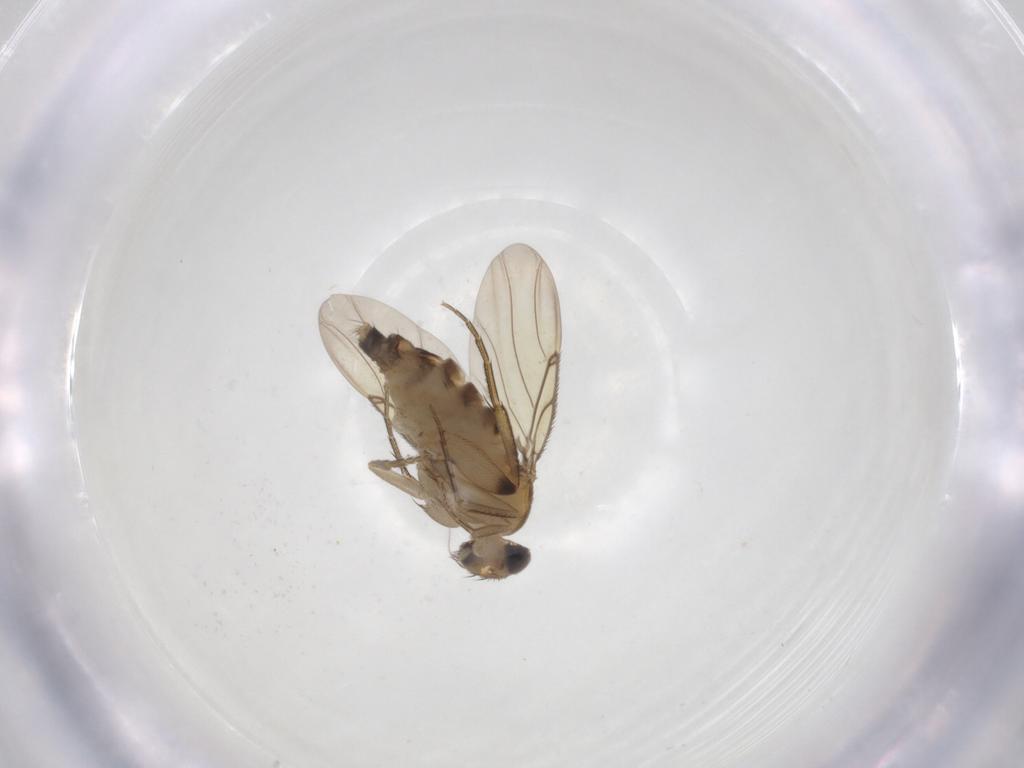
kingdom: Animalia
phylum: Arthropoda
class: Insecta
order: Diptera
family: Phoridae
